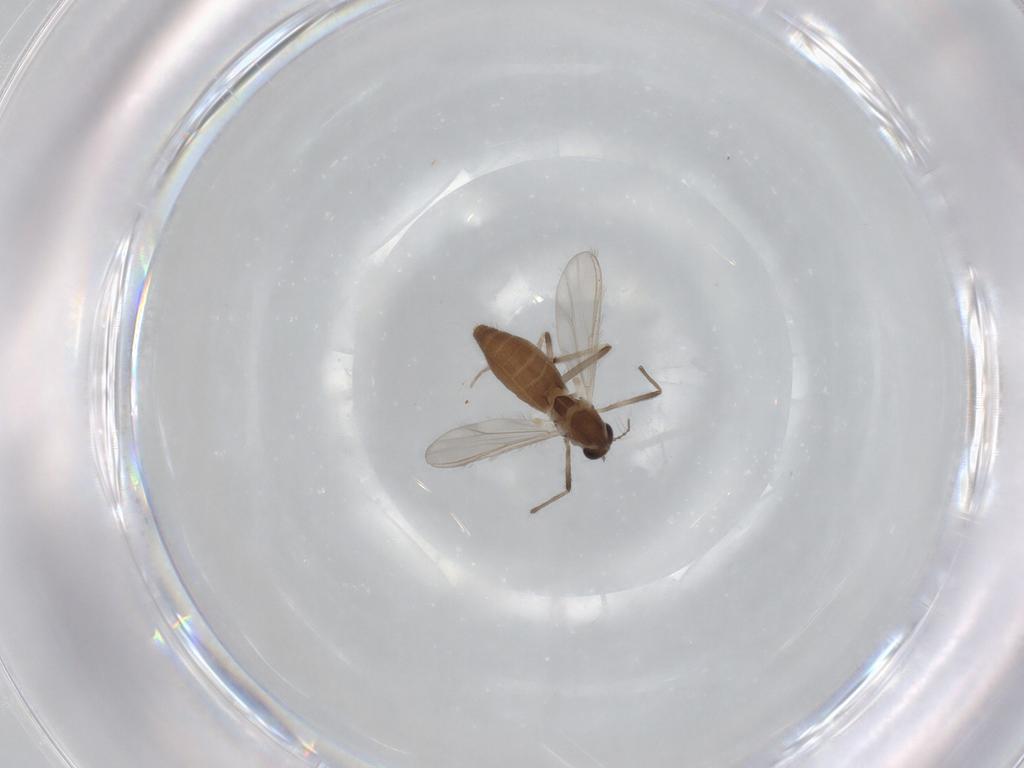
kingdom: Animalia
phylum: Arthropoda
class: Insecta
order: Diptera
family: Chironomidae
